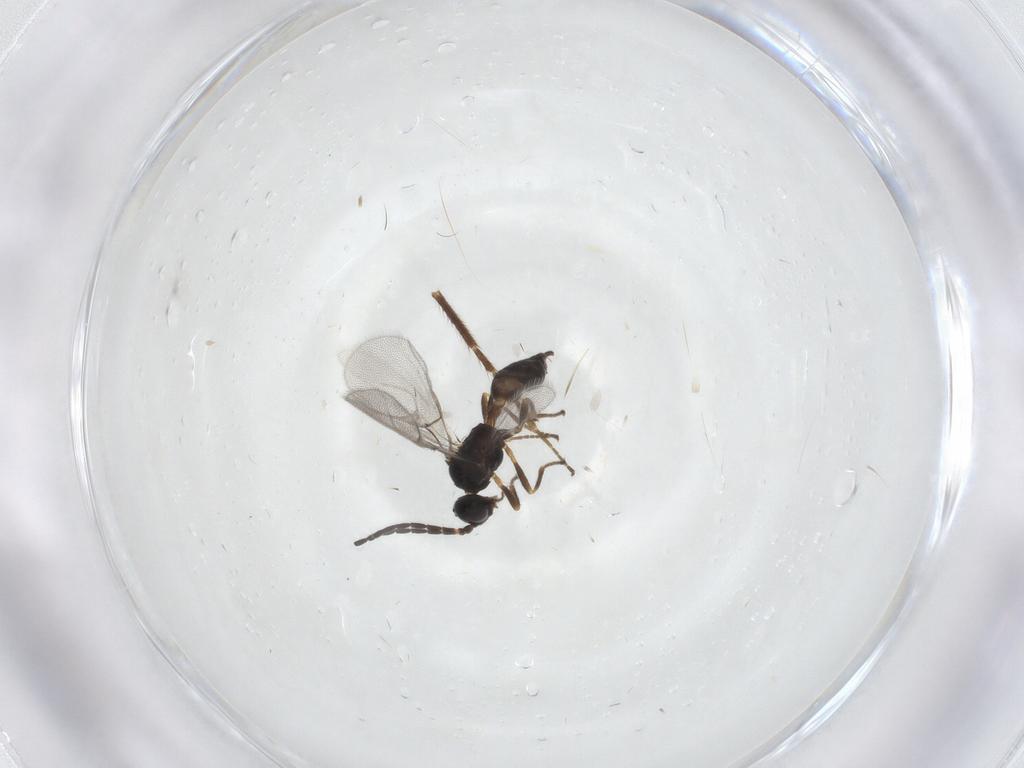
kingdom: Animalia
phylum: Arthropoda
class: Insecta
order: Hymenoptera
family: Braconidae
